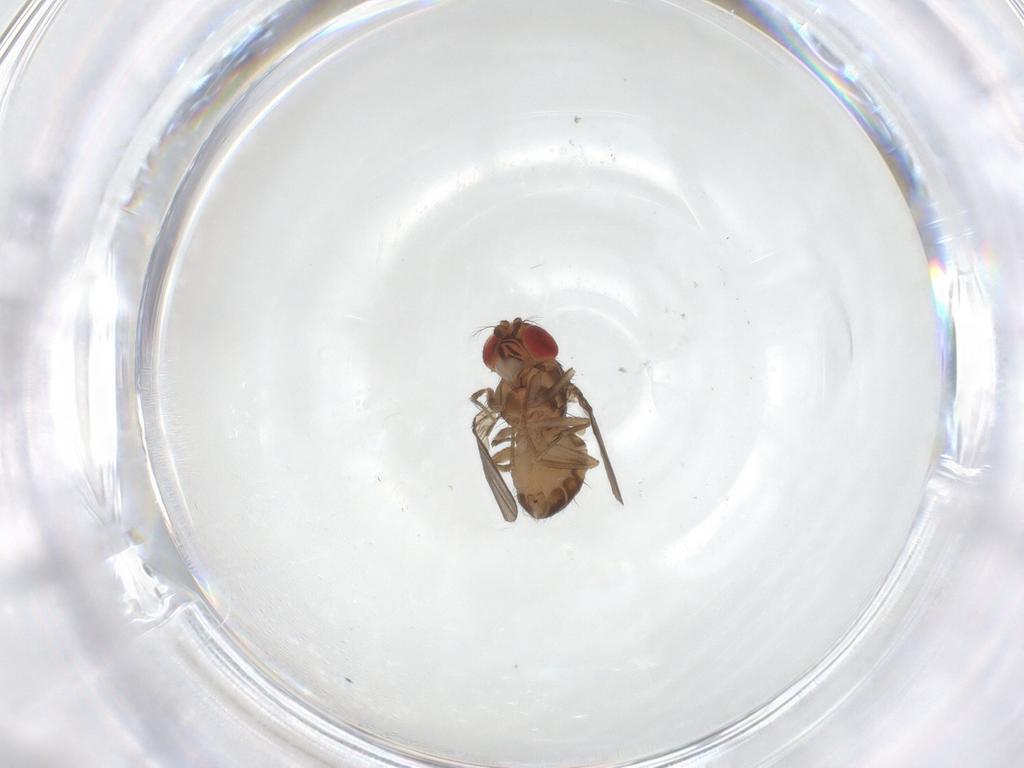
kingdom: Animalia
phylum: Arthropoda
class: Insecta
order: Diptera
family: Drosophilidae
